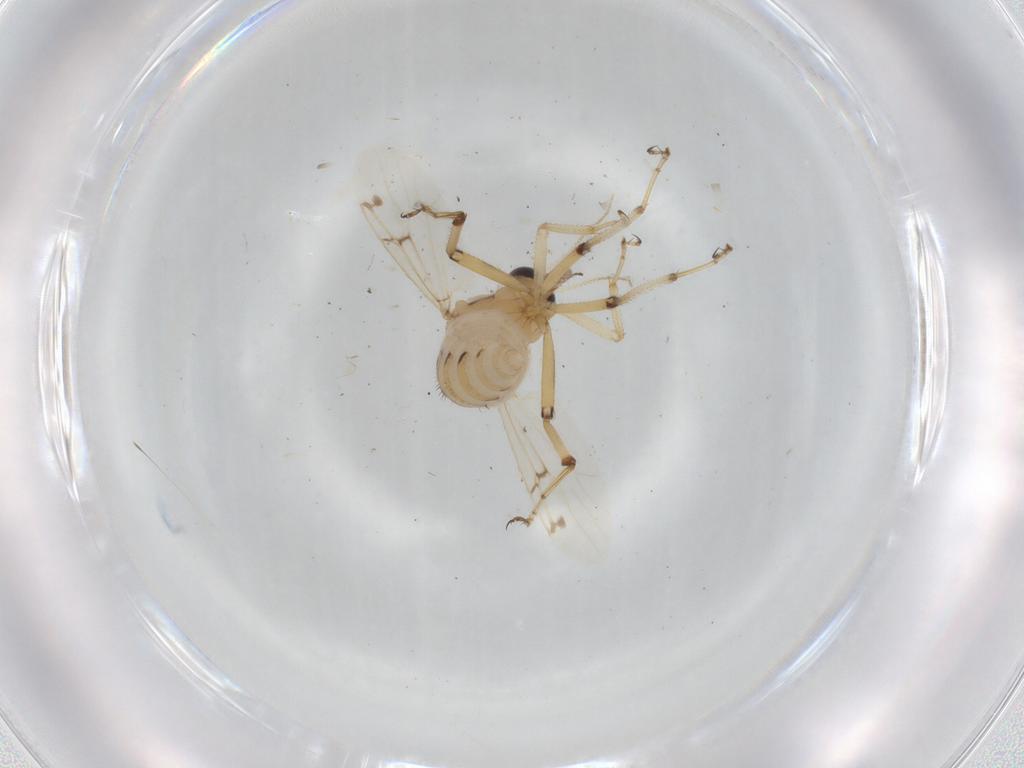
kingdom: Animalia
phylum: Arthropoda
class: Insecta
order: Diptera
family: Ceratopogonidae
